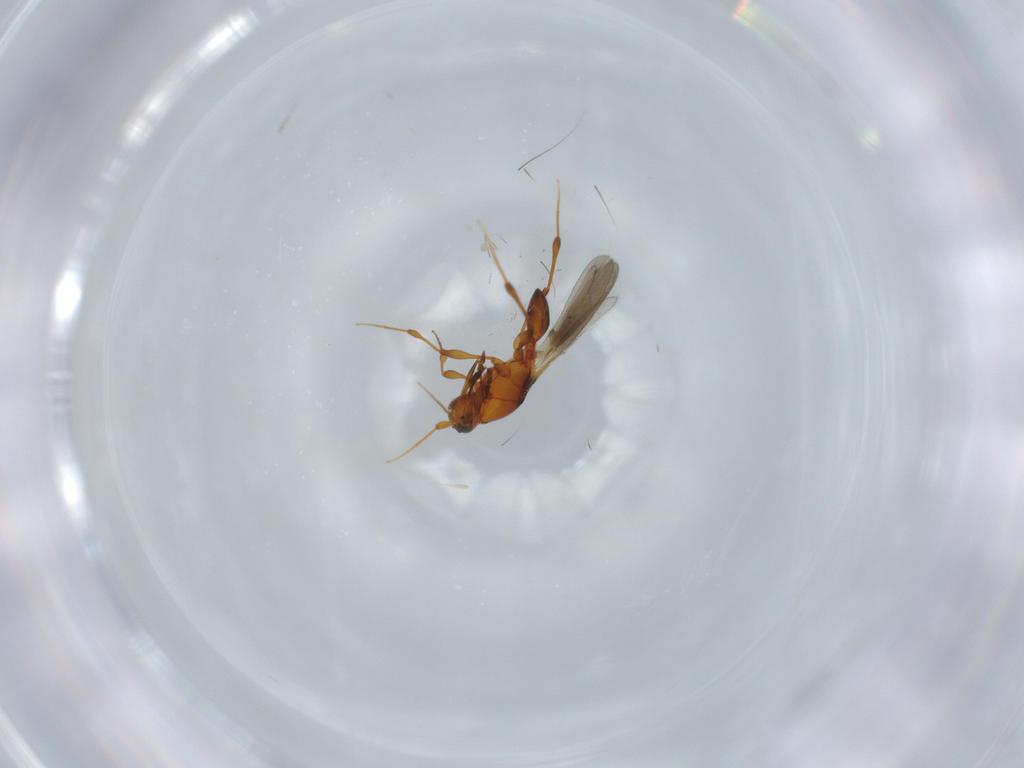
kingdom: Animalia
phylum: Arthropoda
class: Insecta
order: Hymenoptera
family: Platygastridae
